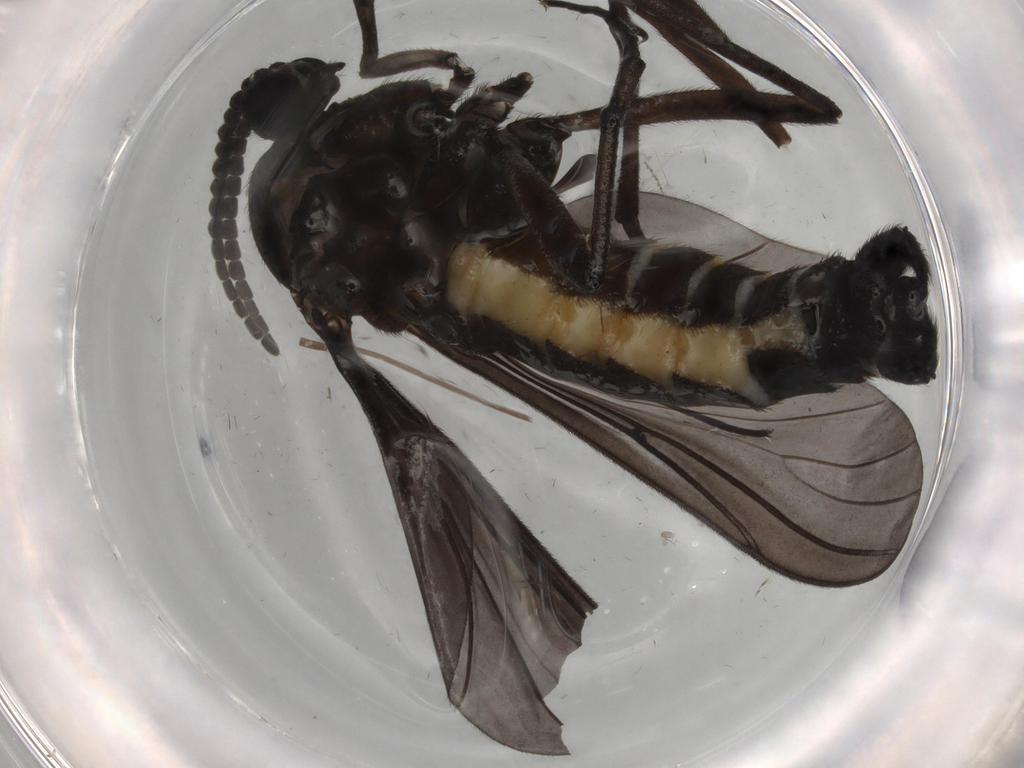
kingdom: Animalia
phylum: Arthropoda
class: Insecta
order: Diptera
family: Sciaridae
